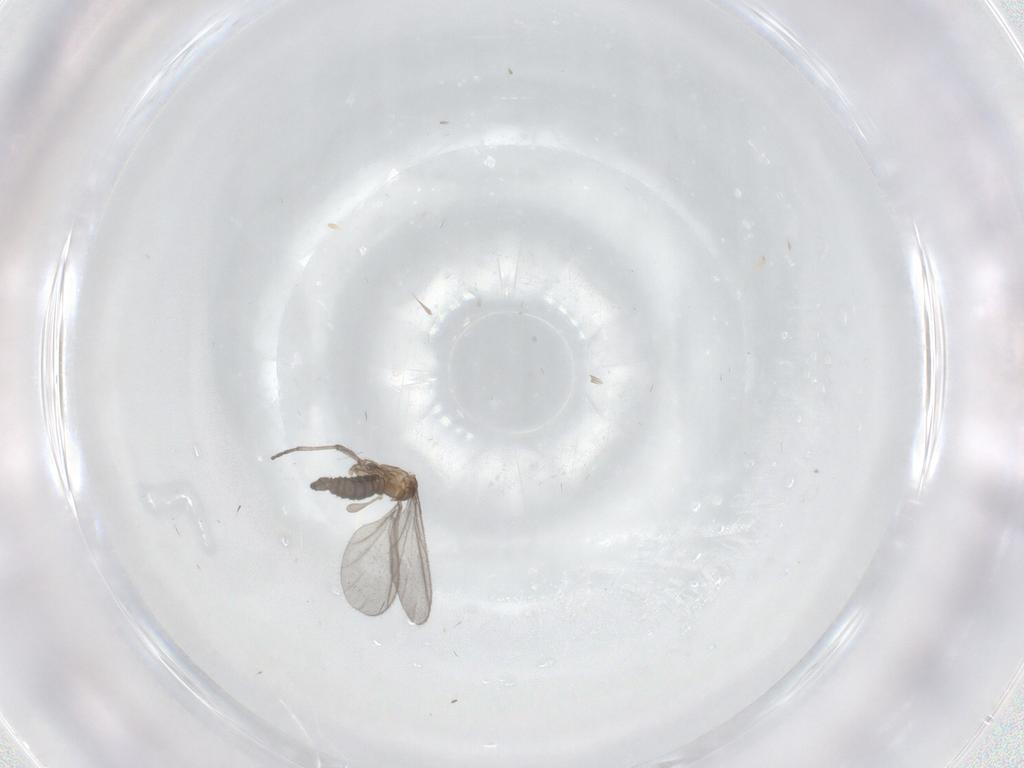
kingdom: Animalia
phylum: Arthropoda
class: Insecta
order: Diptera
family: Sciaridae
